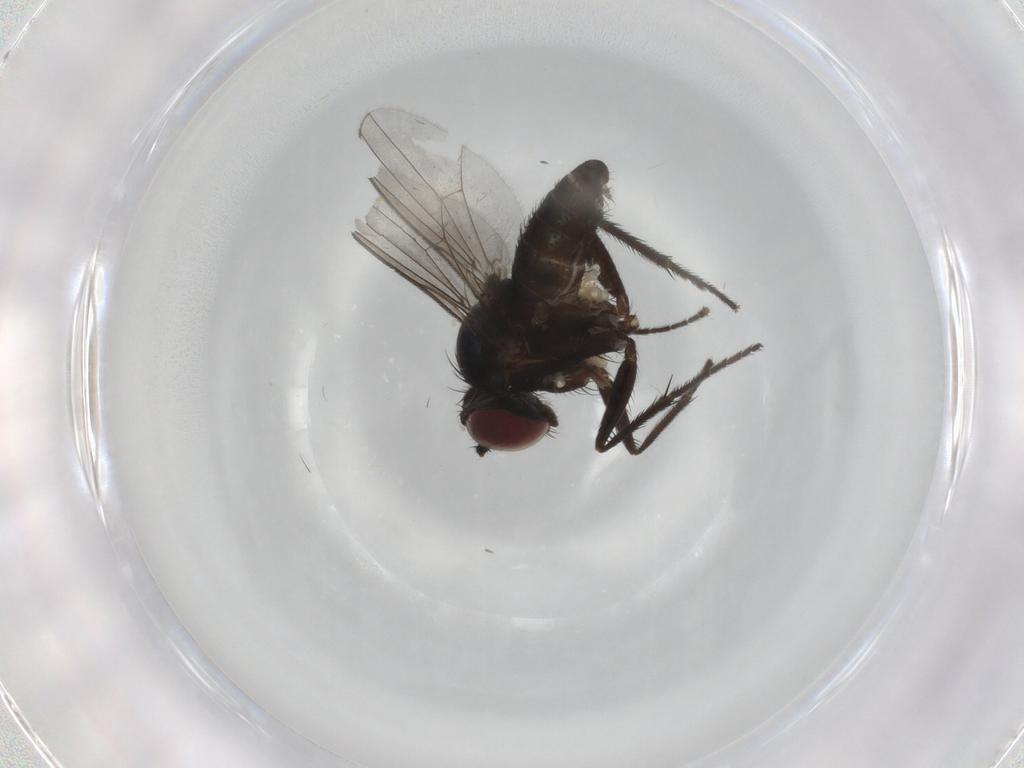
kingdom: Animalia
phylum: Arthropoda
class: Insecta
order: Diptera
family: Dolichopodidae
